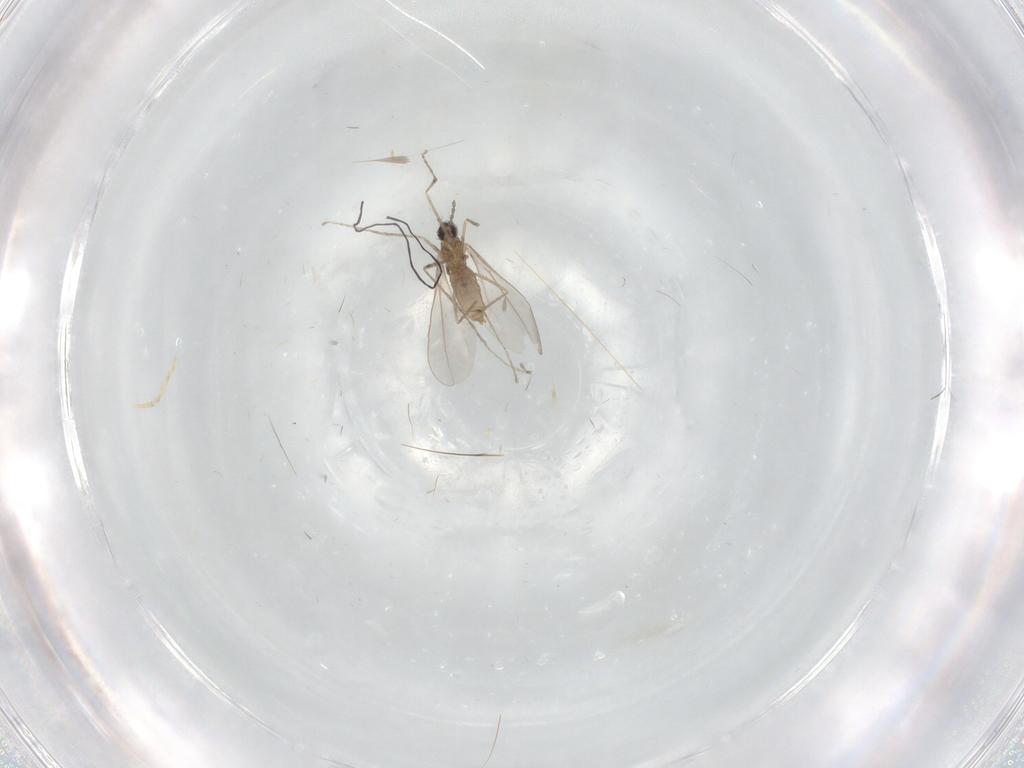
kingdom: Animalia
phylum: Arthropoda
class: Insecta
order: Diptera
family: Cecidomyiidae
